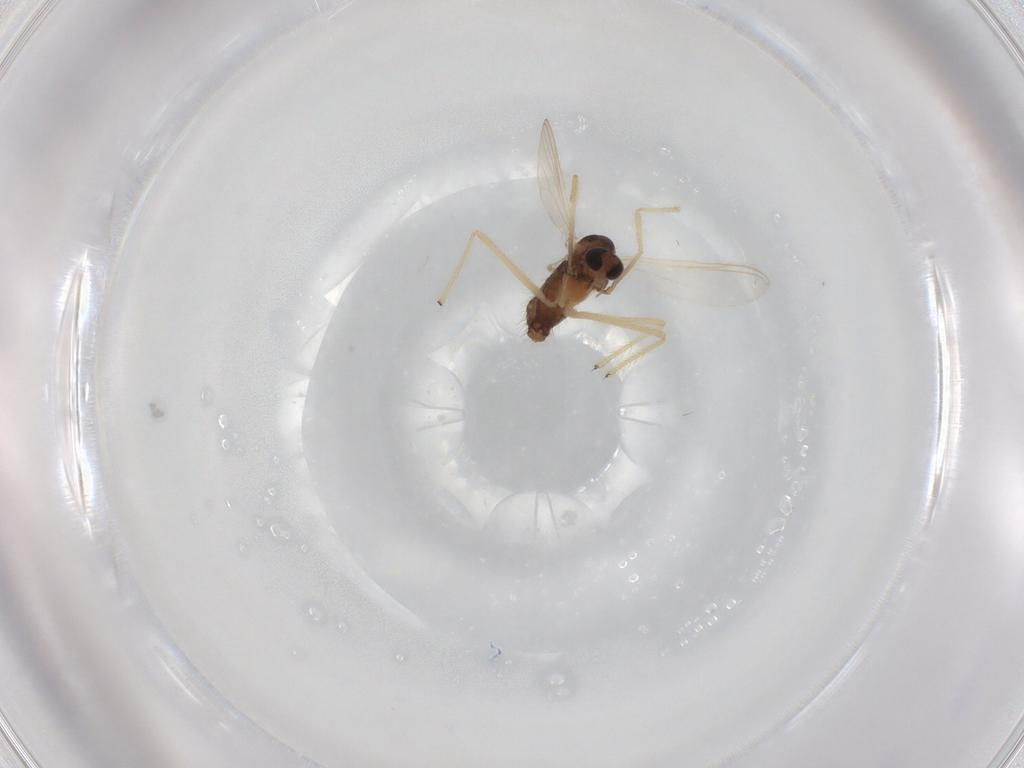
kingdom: Animalia
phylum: Arthropoda
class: Insecta
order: Diptera
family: Chironomidae
